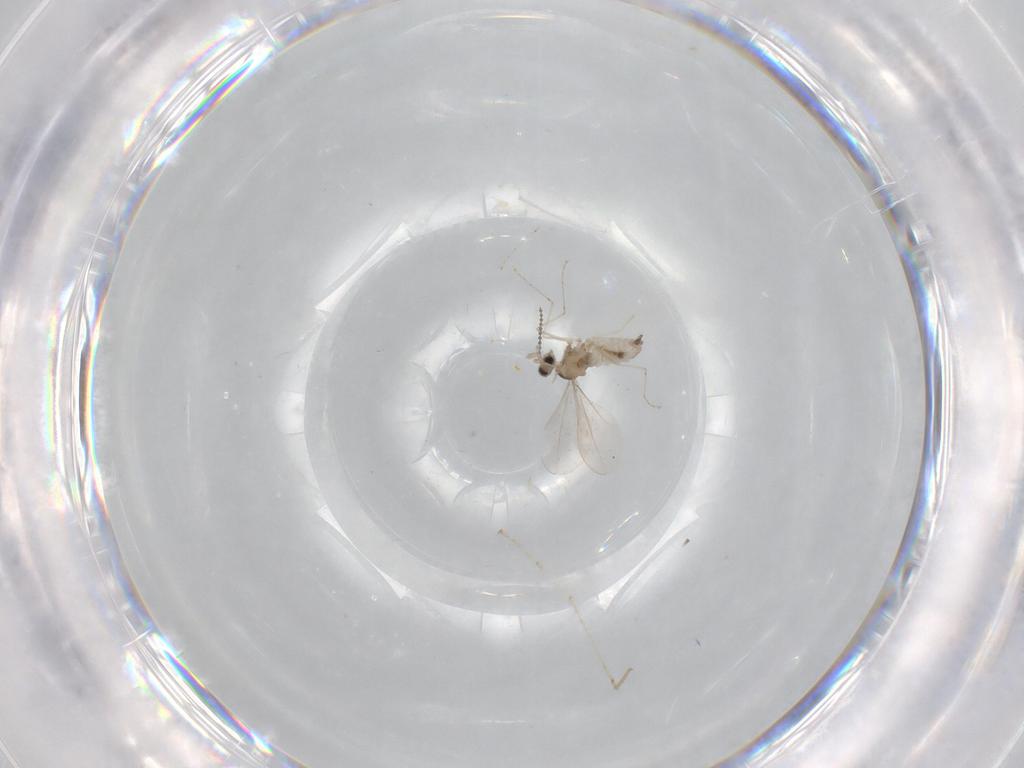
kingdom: Animalia
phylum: Arthropoda
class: Insecta
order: Diptera
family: Cecidomyiidae
